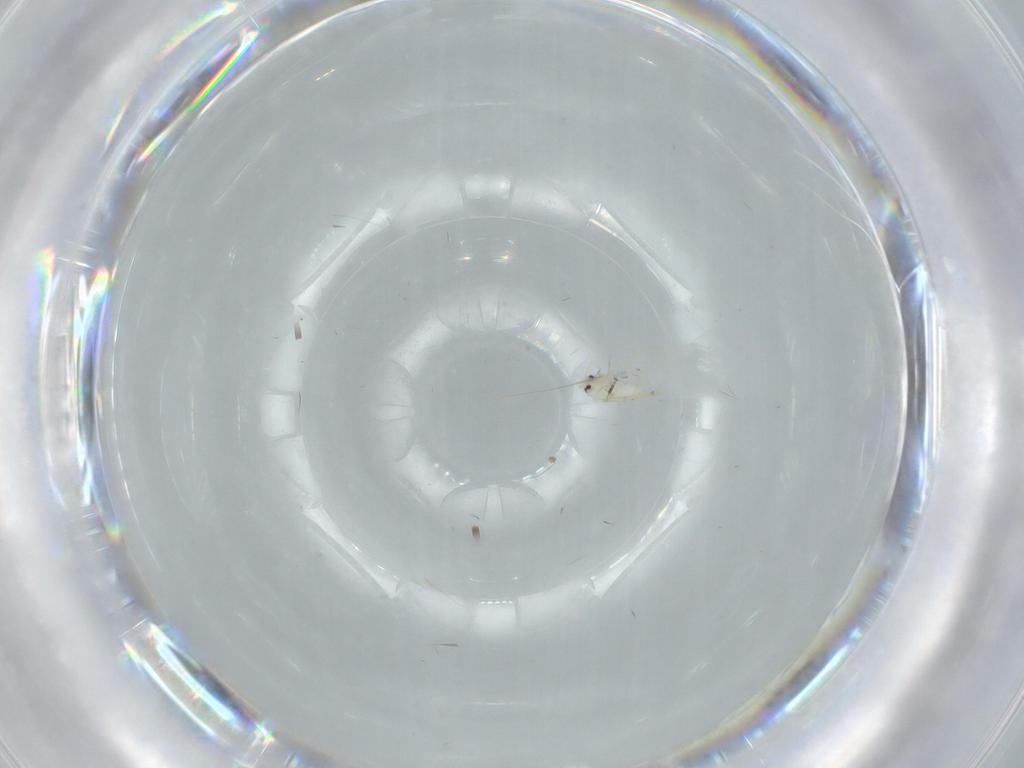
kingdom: Animalia
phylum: Arthropoda
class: Insecta
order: Hemiptera
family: Aleyrodidae
